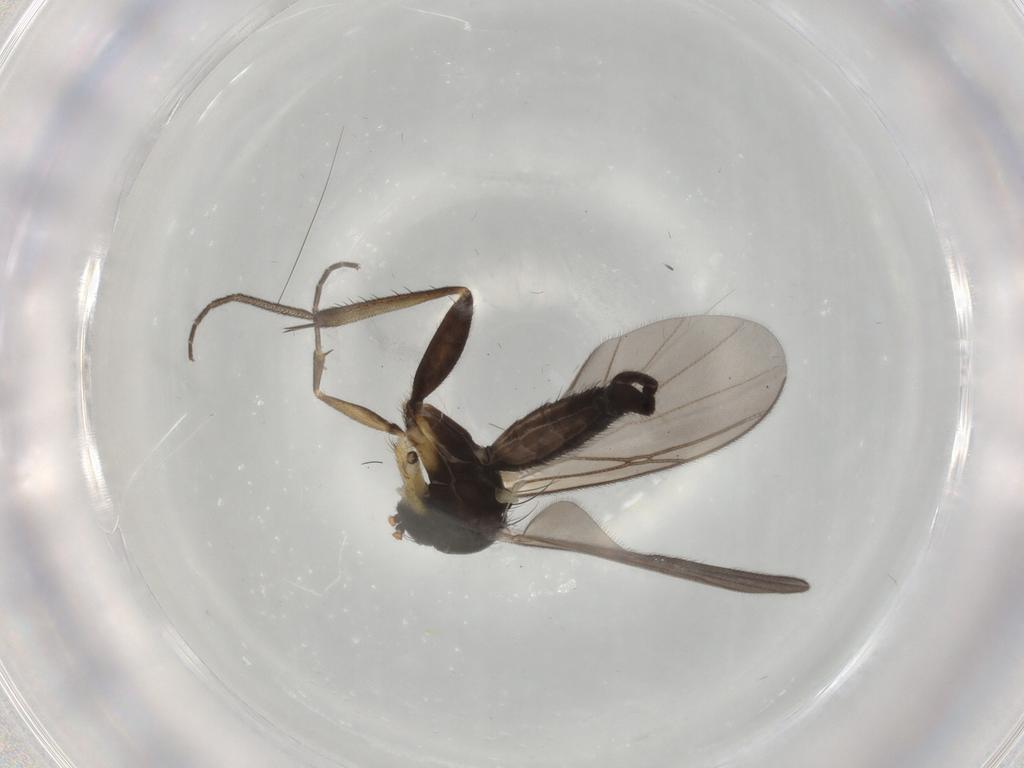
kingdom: Animalia
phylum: Arthropoda
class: Insecta
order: Diptera
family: Mycetophilidae
